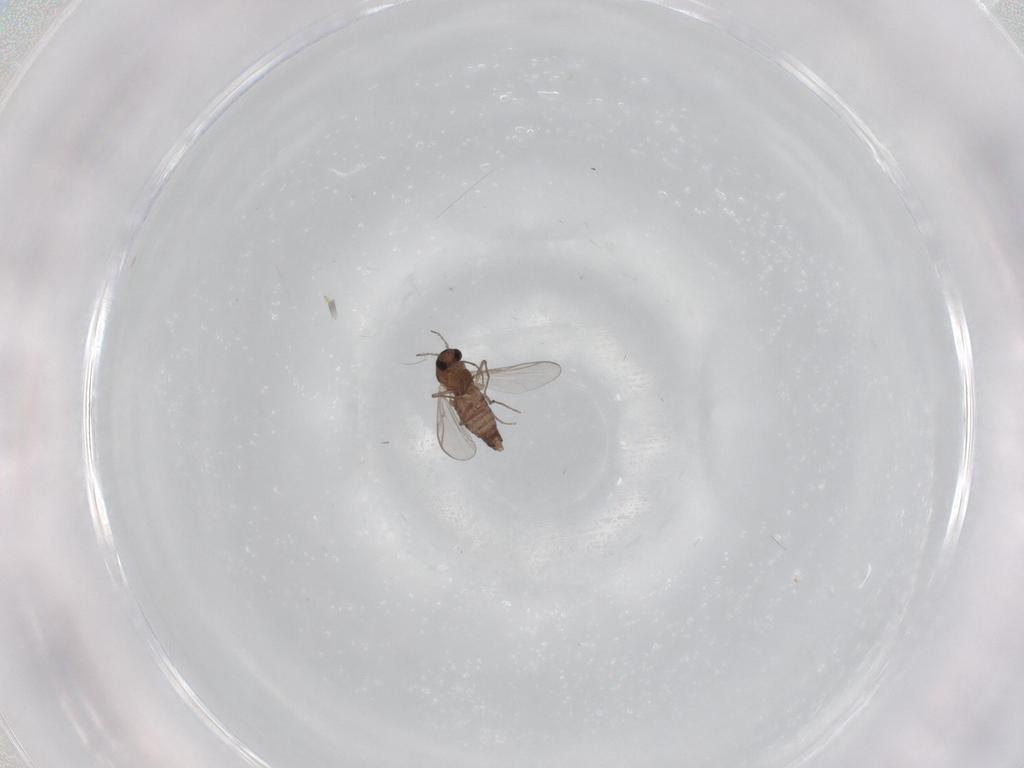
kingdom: Animalia
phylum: Arthropoda
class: Insecta
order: Diptera
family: Chironomidae
